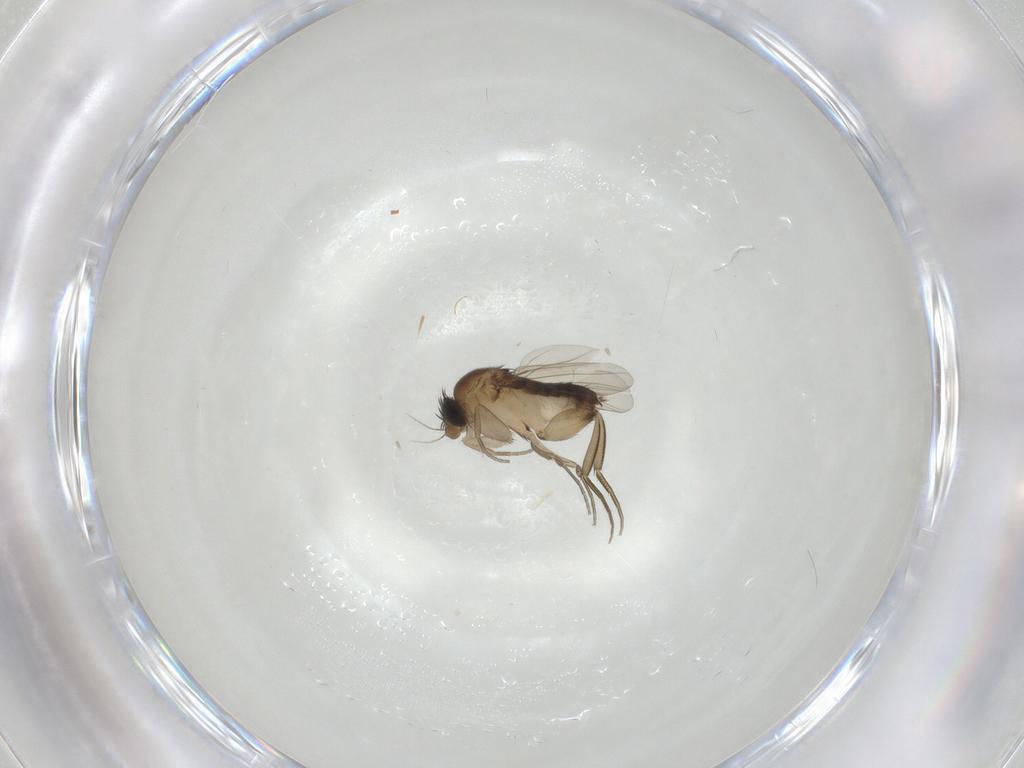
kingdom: Animalia
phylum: Arthropoda
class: Insecta
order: Diptera
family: Phoridae
